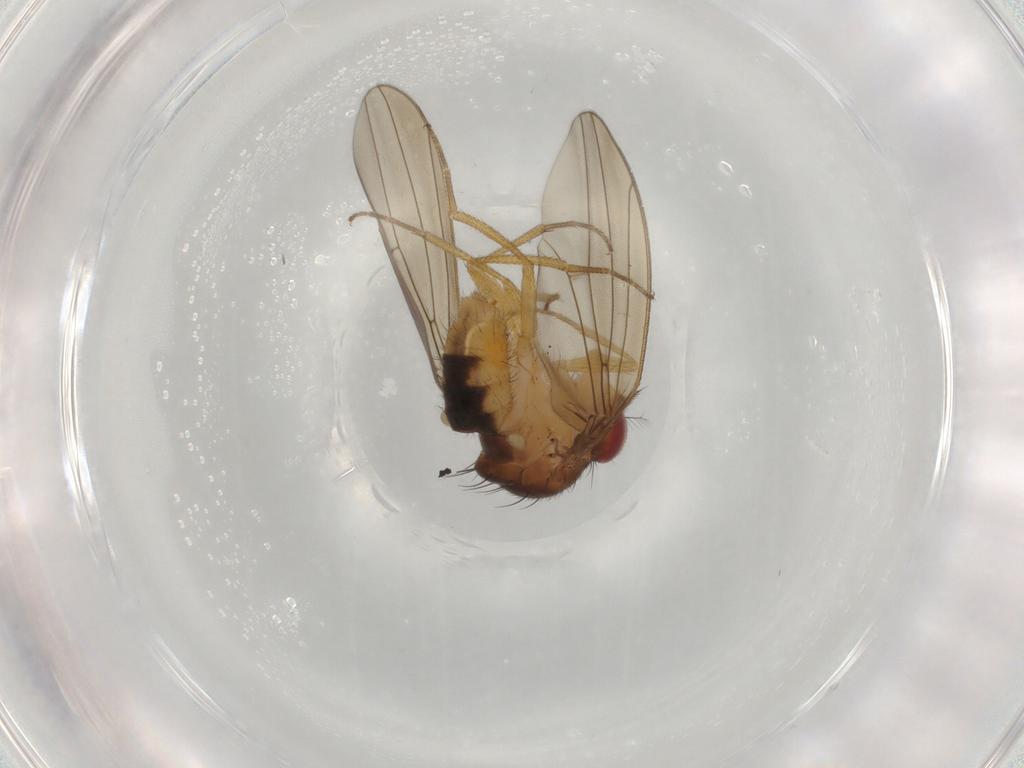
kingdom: Animalia
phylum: Arthropoda
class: Insecta
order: Diptera
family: Drosophilidae
